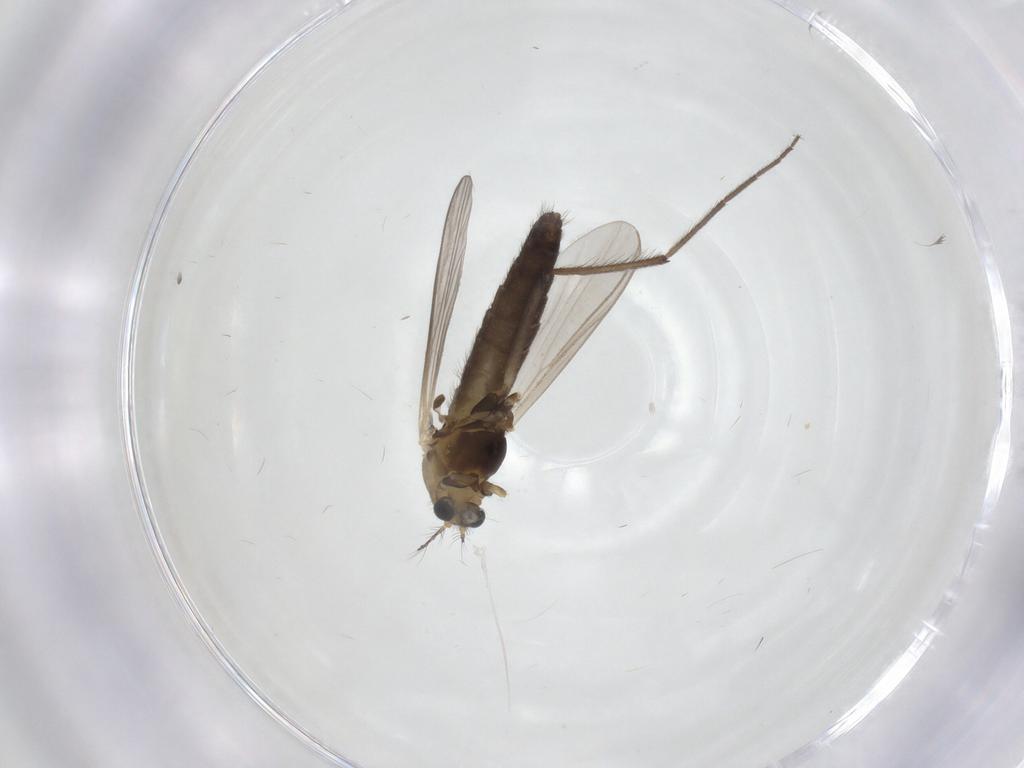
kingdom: Animalia
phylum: Arthropoda
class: Insecta
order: Diptera
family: Chironomidae
